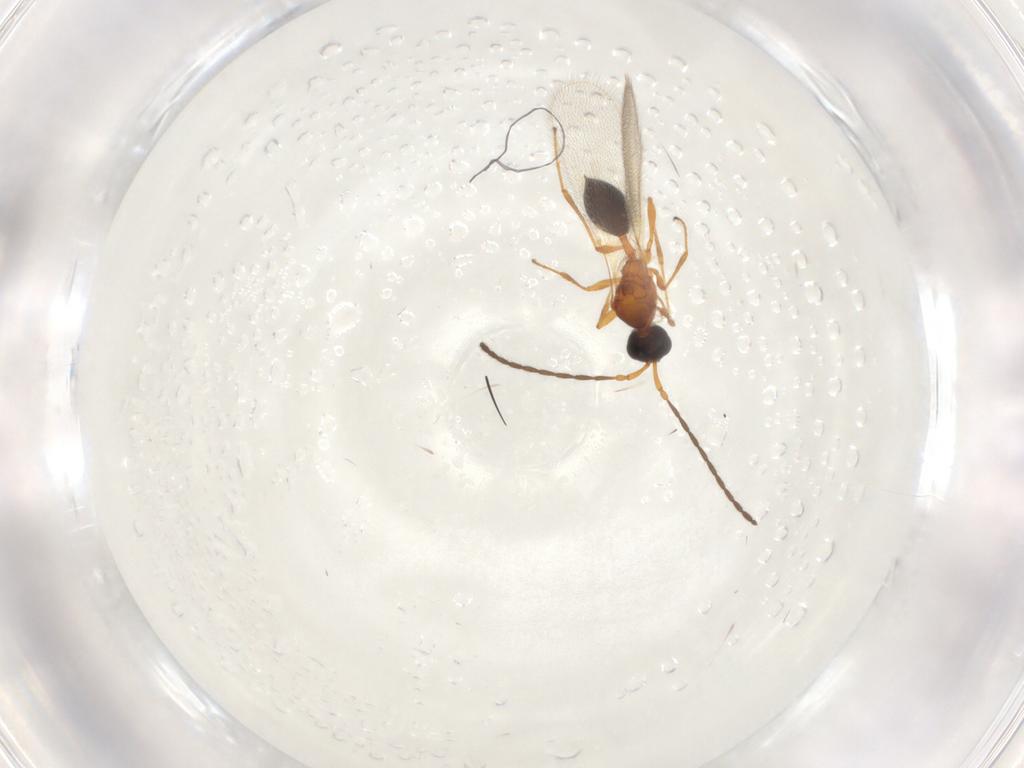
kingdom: Animalia
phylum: Arthropoda
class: Insecta
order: Hymenoptera
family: Diapriidae
